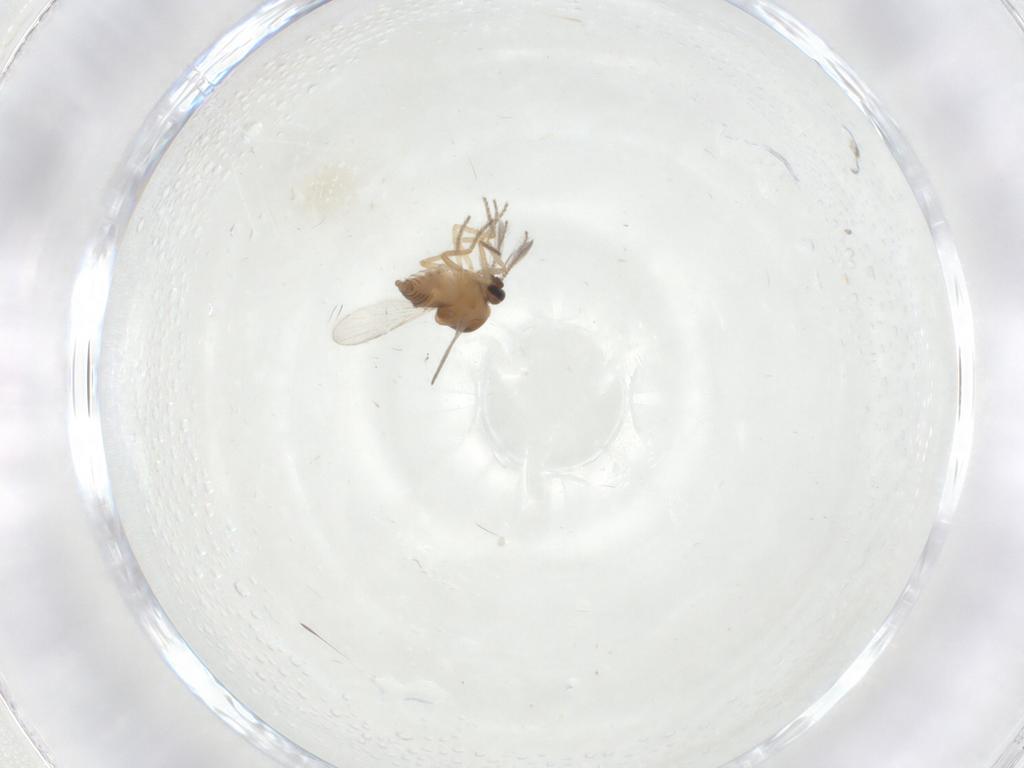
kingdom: Animalia
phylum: Arthropoda
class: Insecta
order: Diptera
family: Ceratopogonidae
